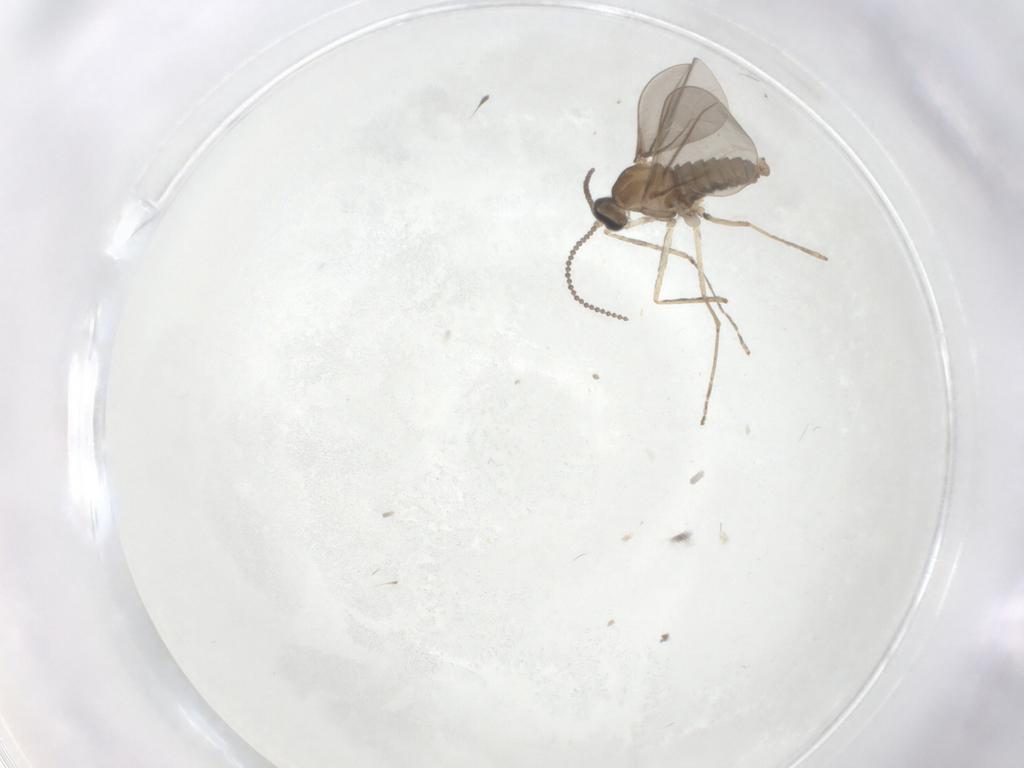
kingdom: Animalia
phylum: Arthropoda
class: Insecta
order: Diptera
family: Cecidomyiidae
